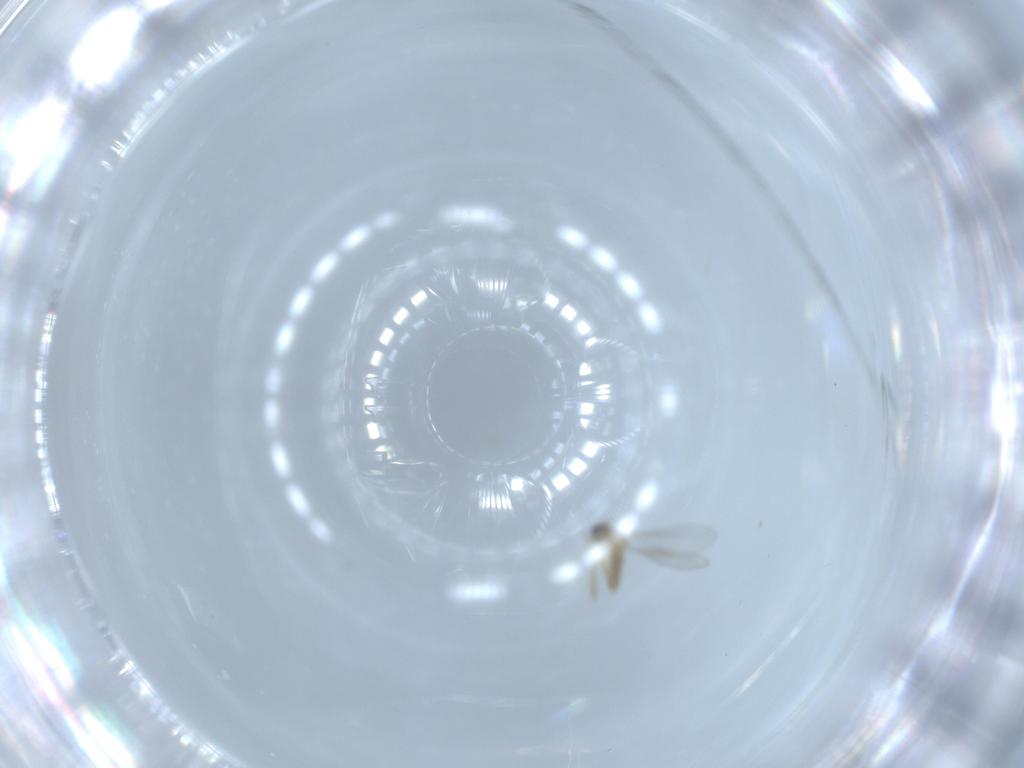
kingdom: Animalia
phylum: Arthropoda
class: Insecta
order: Diptera
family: Cecidomyiidae
